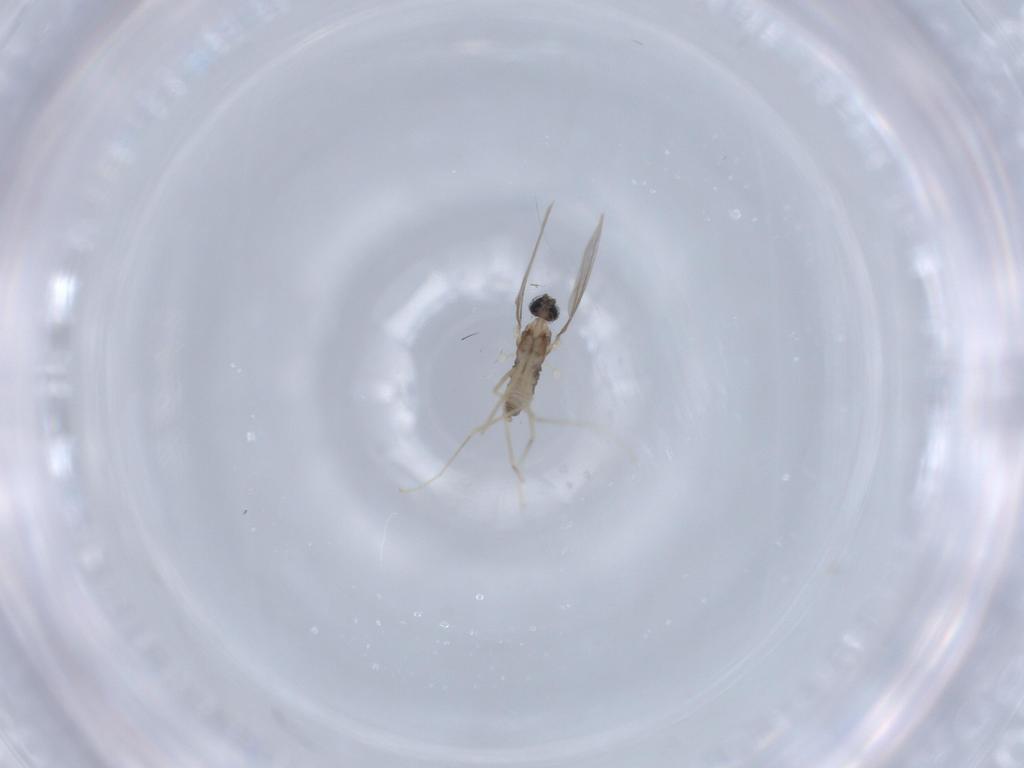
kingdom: Animalia
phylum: Arthropoda
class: Insecta
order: Diptera
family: Cecidomyiidae
